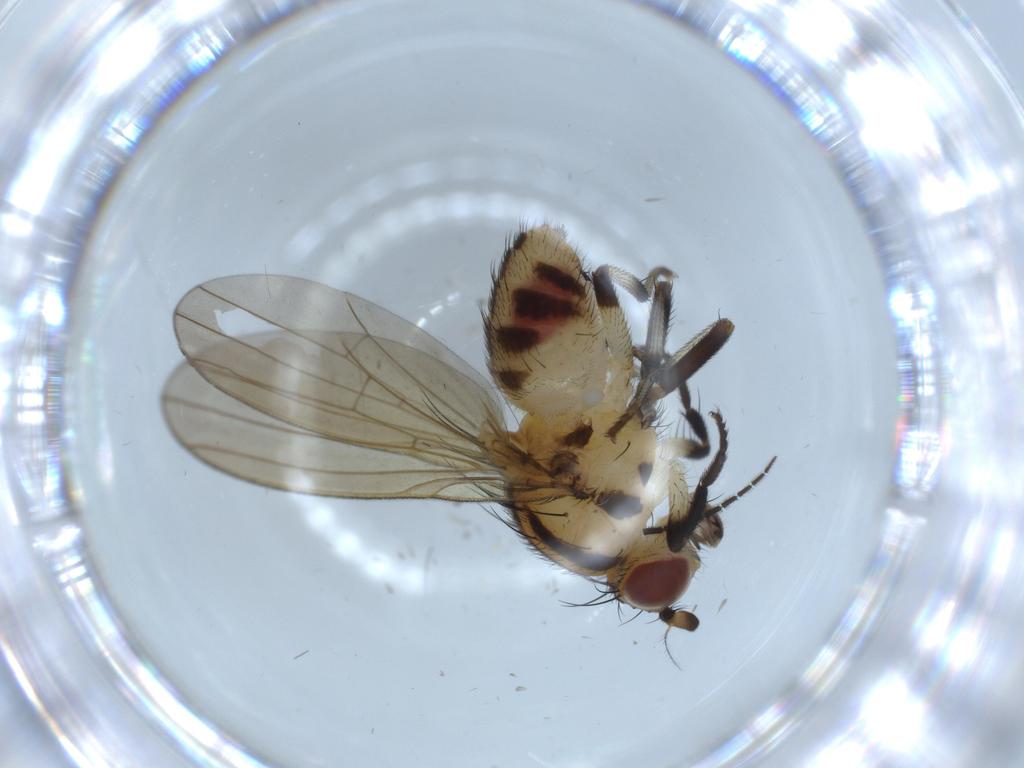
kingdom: Animalia
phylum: Arthropoda
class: Insecta
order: Diptera
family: Lauxaniidae
